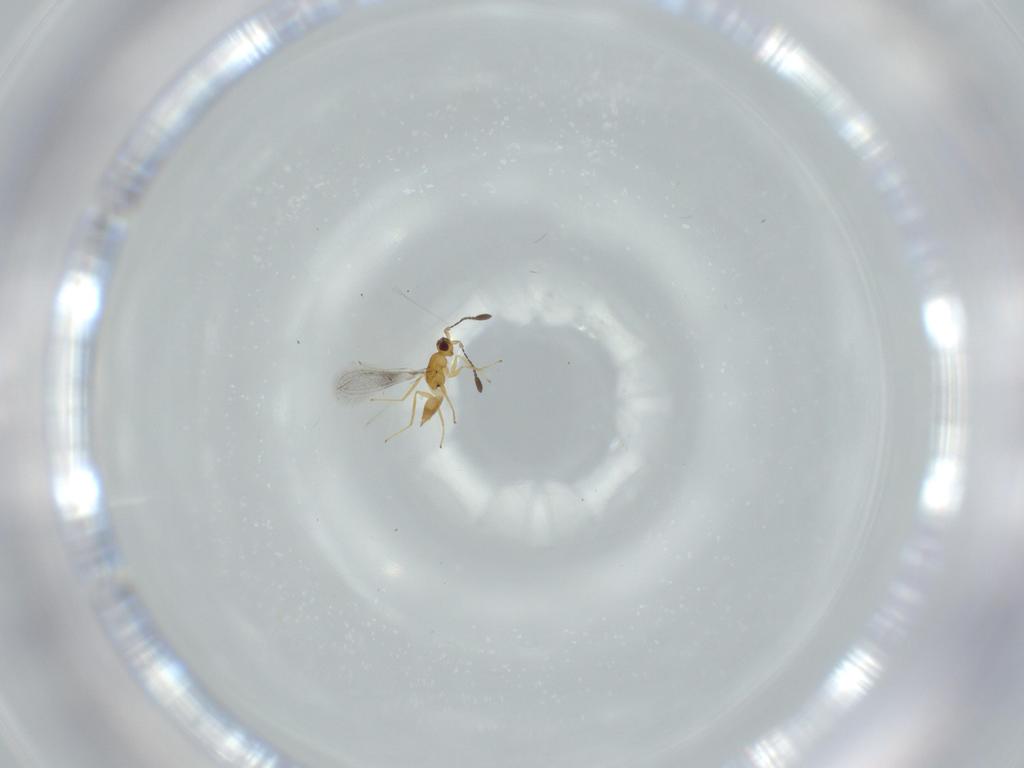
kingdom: Animalia
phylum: Arthropoda
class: Insecta
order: Hymenoptera
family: Mymaridae
